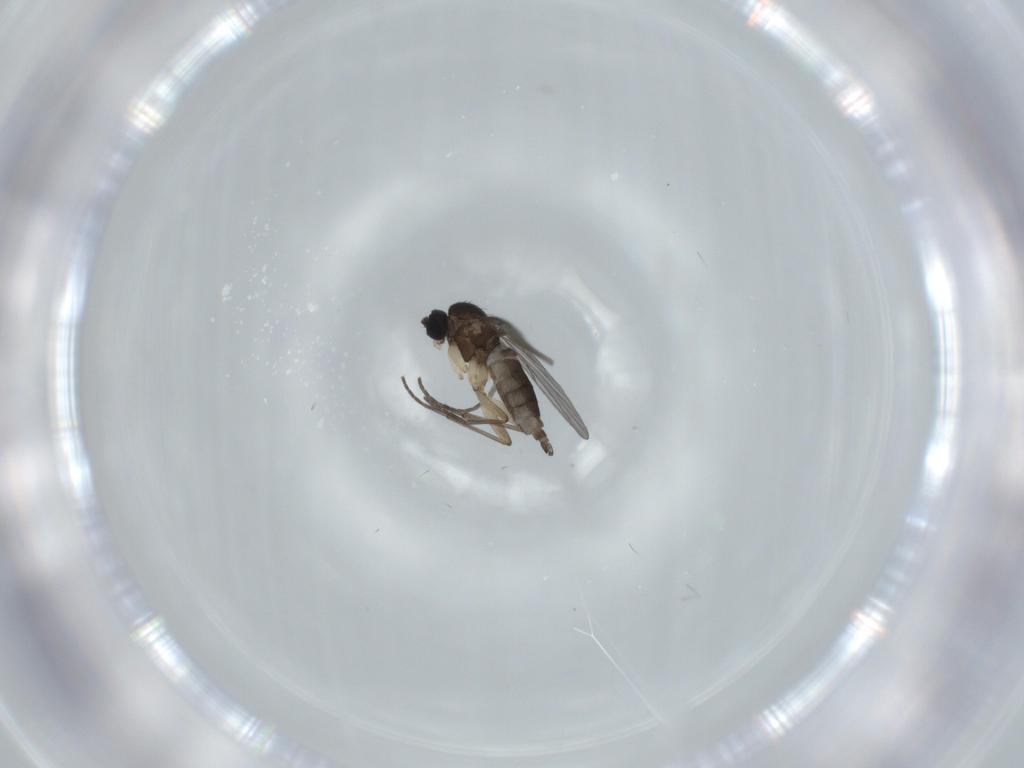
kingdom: Animalia
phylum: Arthropoda
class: Insecta
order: Diptera
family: Sciaridae
